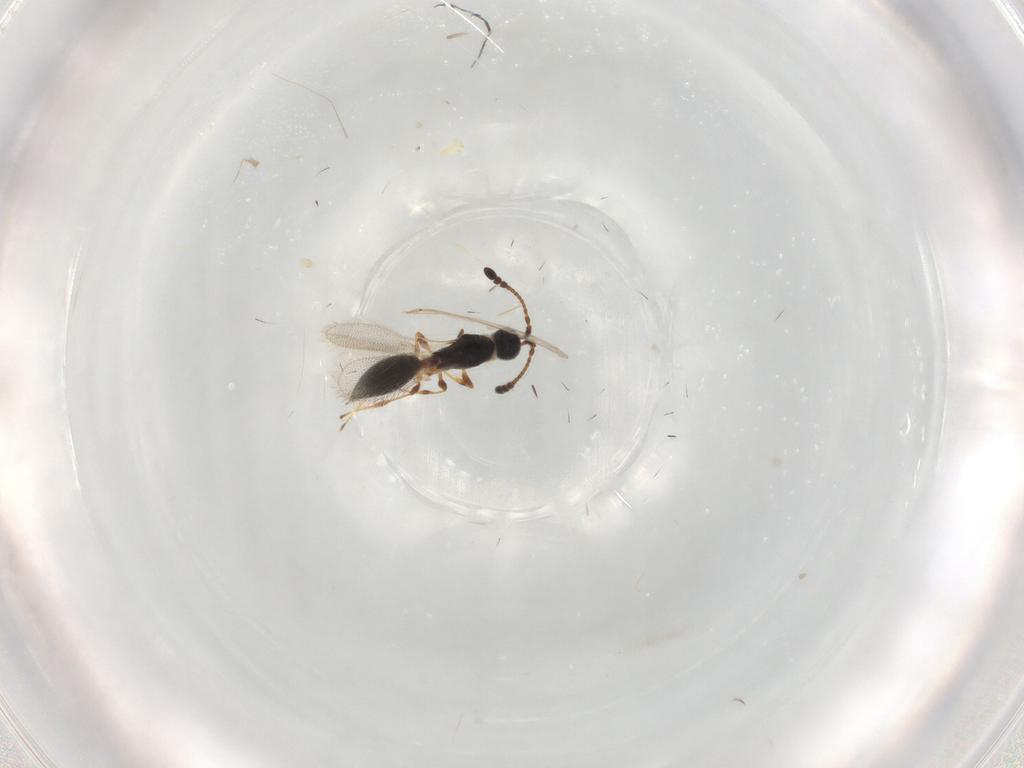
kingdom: Animalia
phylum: Arthropoda
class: Insecta
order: Hymenoptera
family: Diapriidae
